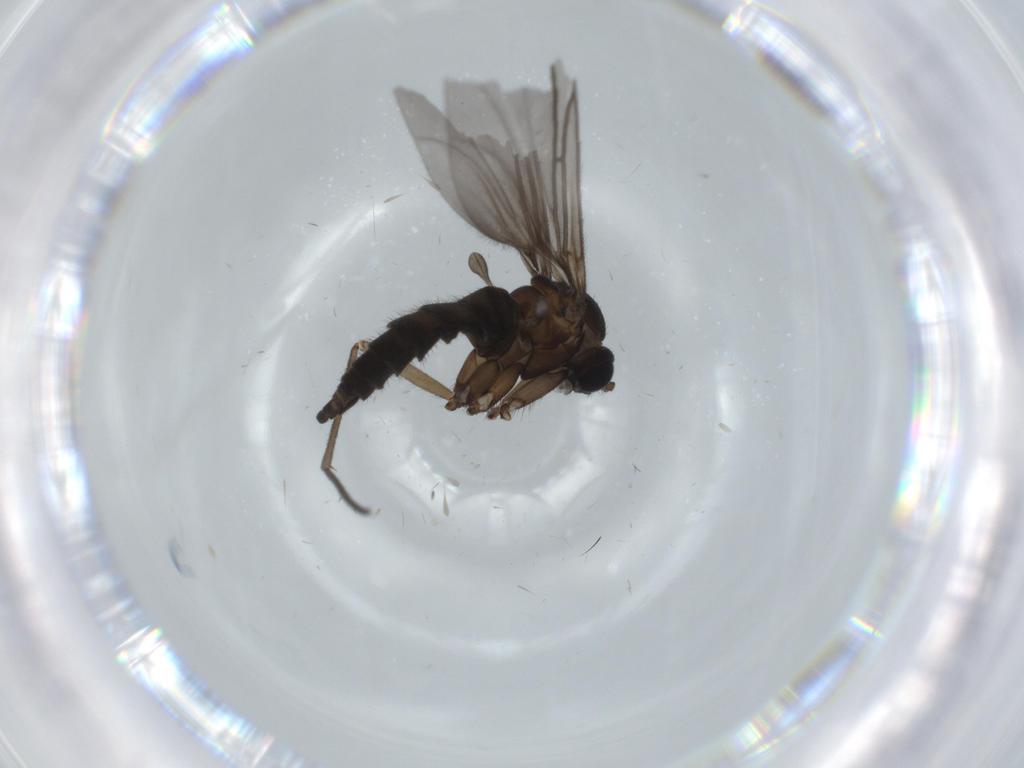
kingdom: Animalia
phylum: Arthropoda
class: Insecta
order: Diptera
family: Sciaridae
